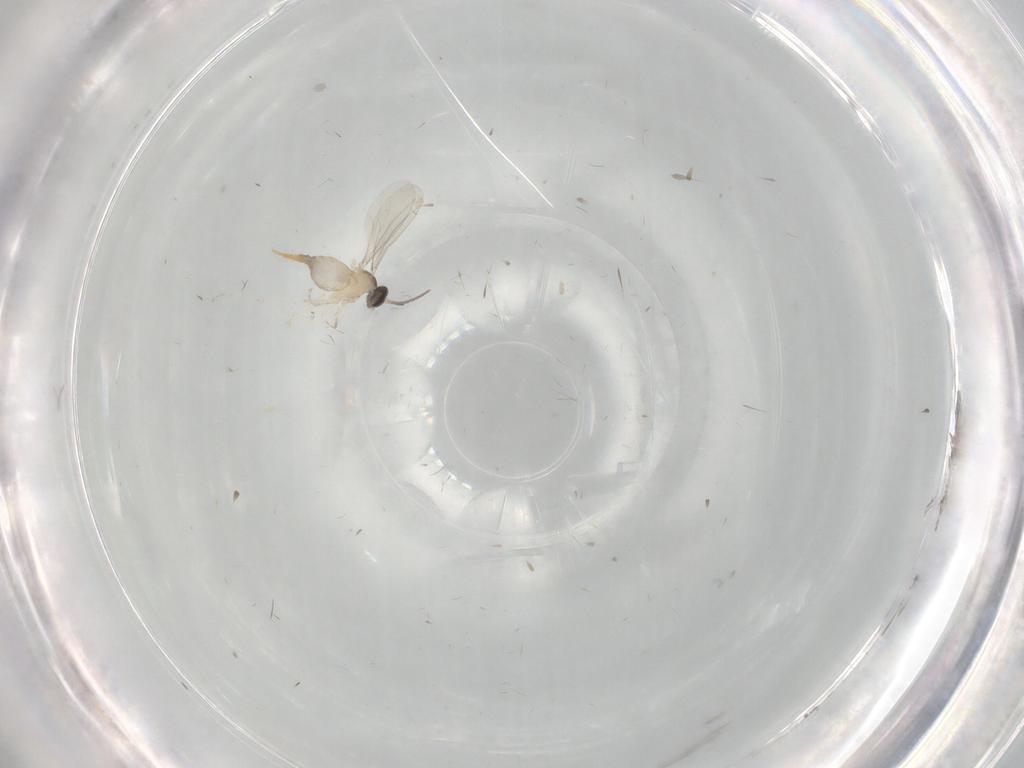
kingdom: Animalia
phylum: Arthropoda
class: Insecta
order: Diptera
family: Cecidomyiidae
